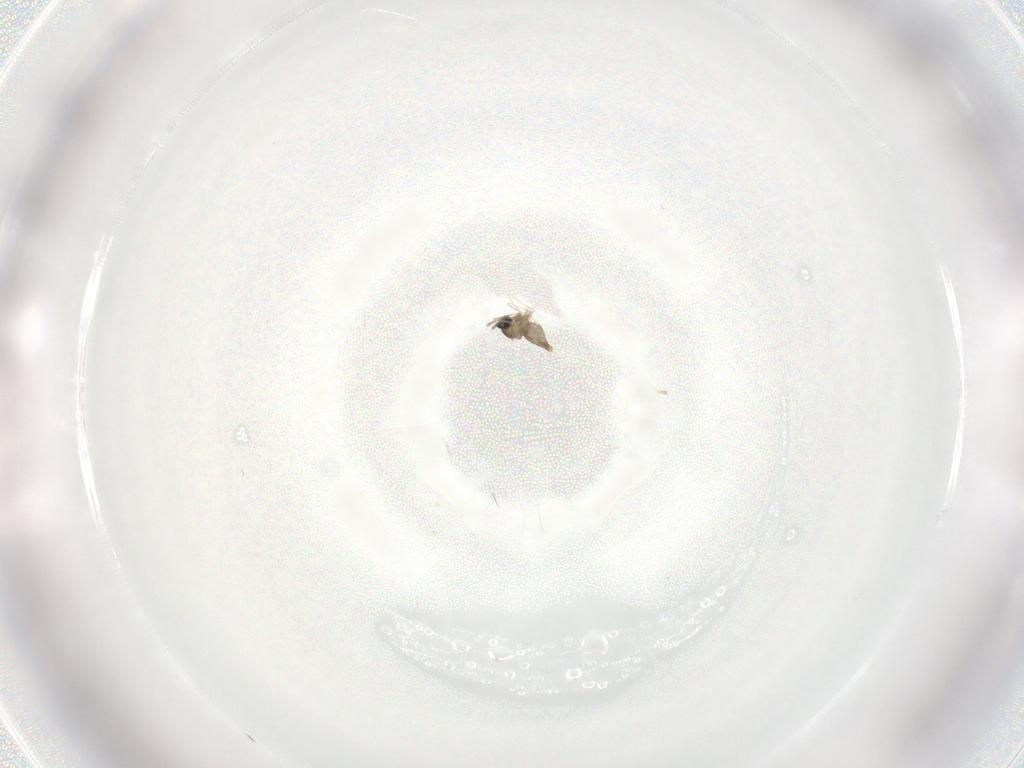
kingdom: Animalia
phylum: Arthropoda
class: Insecta
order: Diptera
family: Cecidomyiidae
